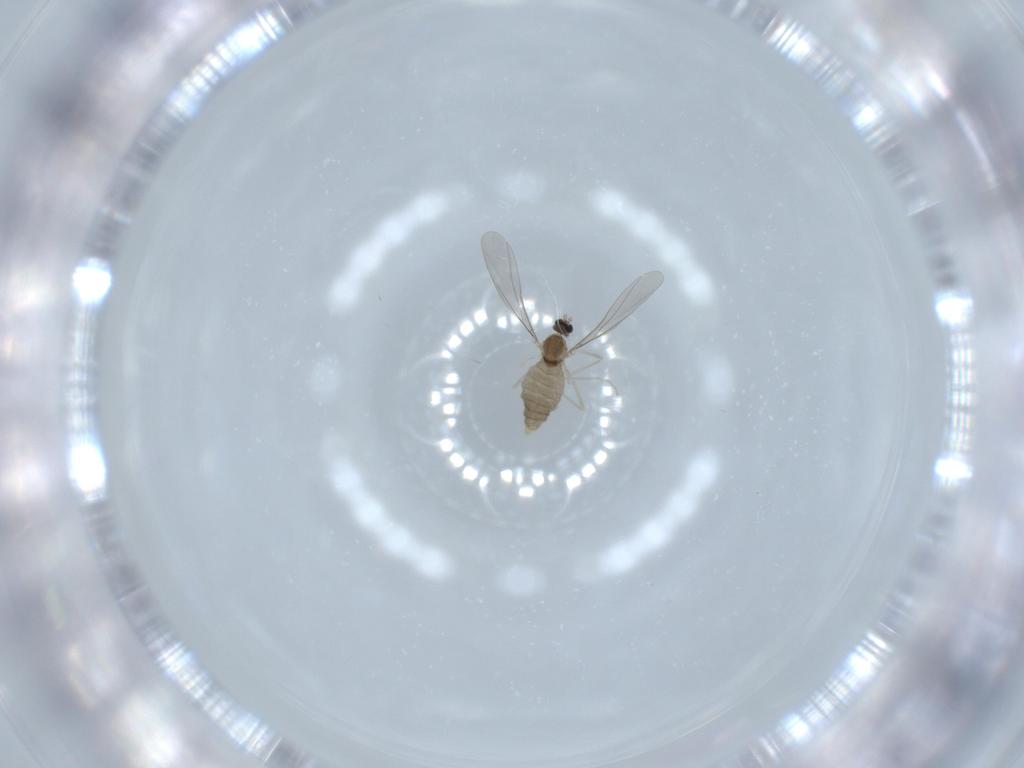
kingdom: Animalia
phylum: Arthropoda
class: Insecta
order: Diptera
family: Cecidomyiidae
